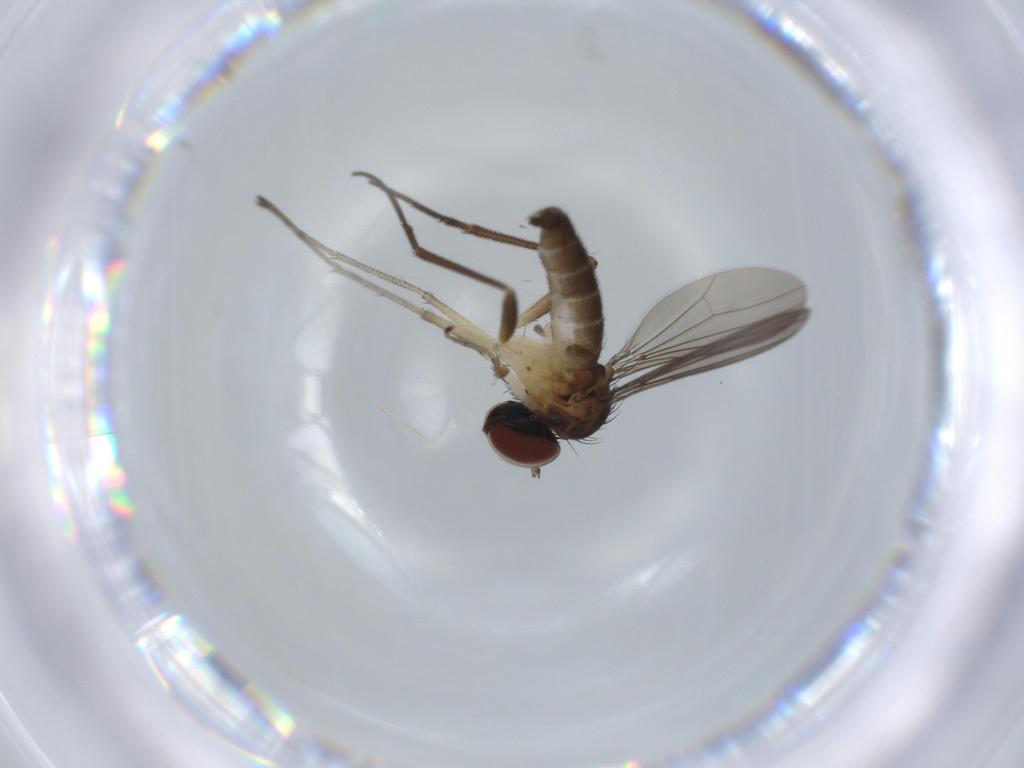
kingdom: Animalia
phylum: Arthropoda
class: Insecta
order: Diptera
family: Dolichopodidae
